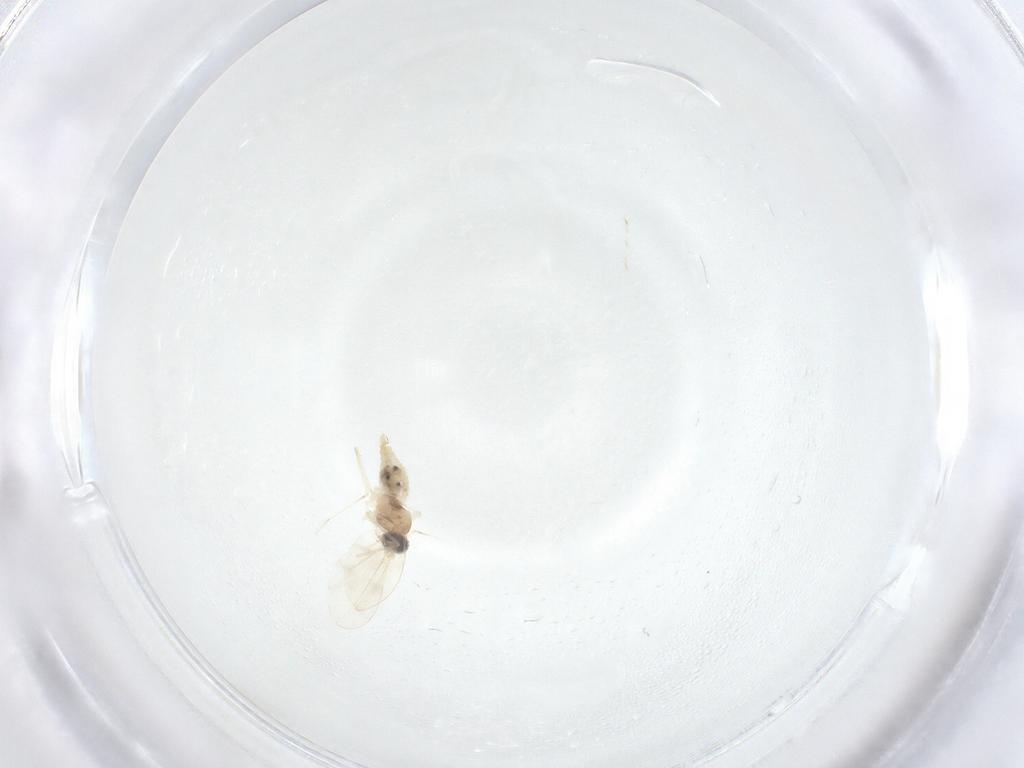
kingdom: Animalia
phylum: Arthropoda
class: Insecta
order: Diptera
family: Cecidomyiidae
